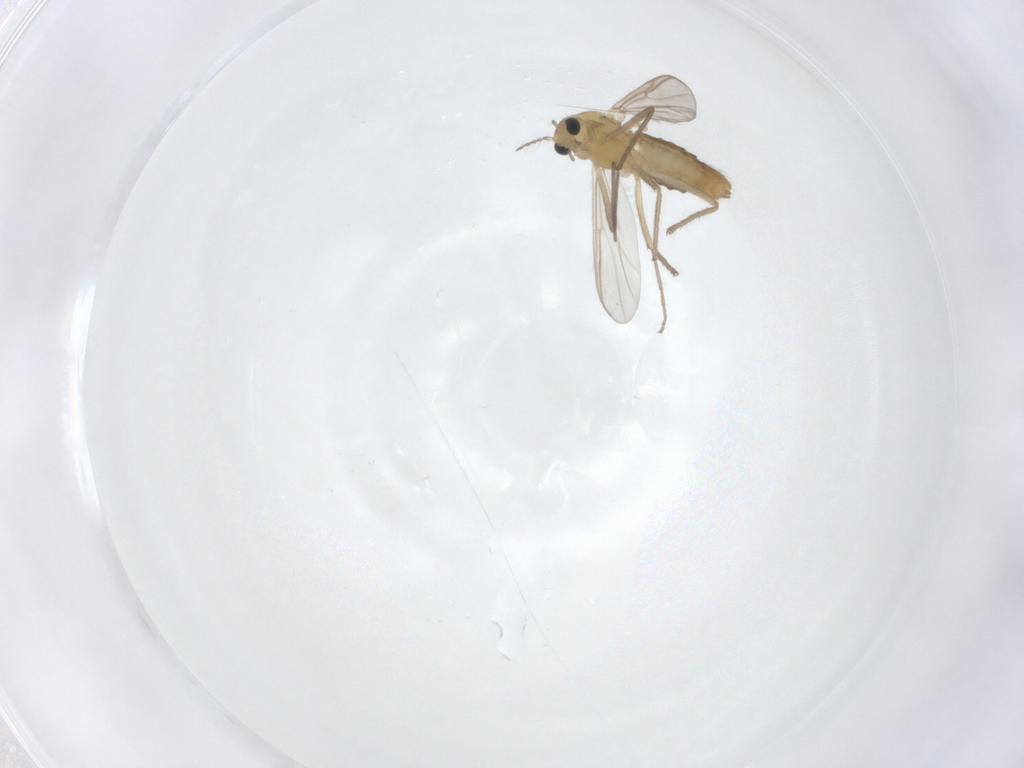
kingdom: Animalia
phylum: Arthropoda
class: Insecta
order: Diptera
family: Chironomidae
